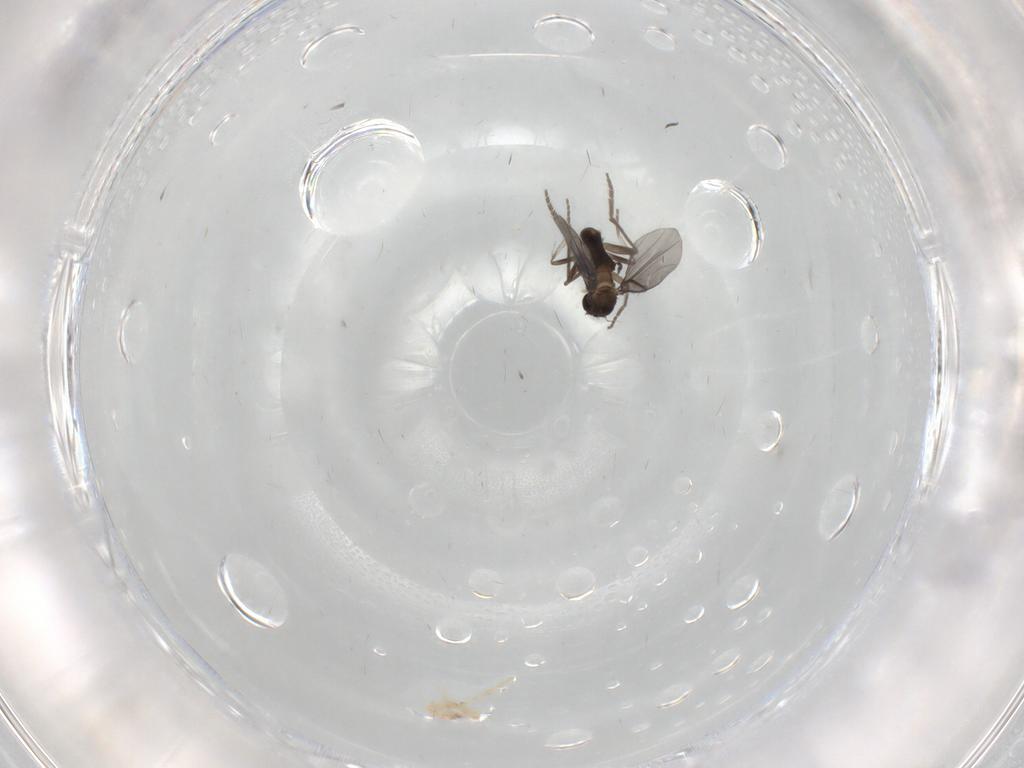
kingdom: Animalia
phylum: Arthropoda
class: Insecta
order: Diptera
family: Phoridae
